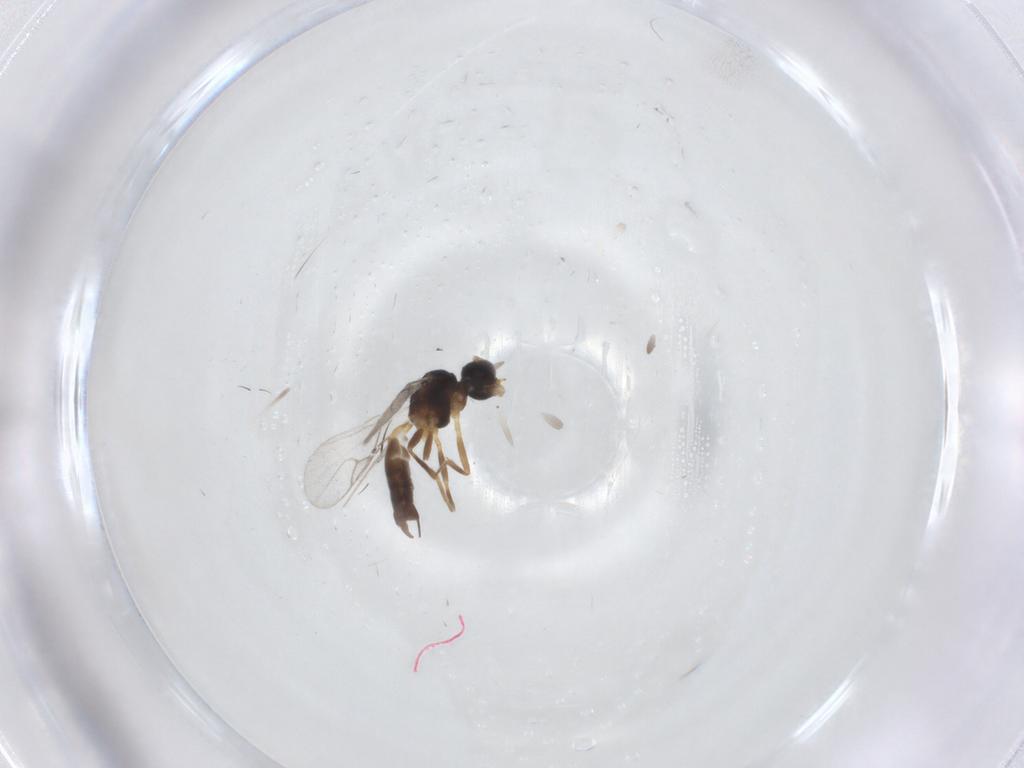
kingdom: Animalia
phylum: Arthropoda
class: Insecta
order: Hymenoptera
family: Braconidae
